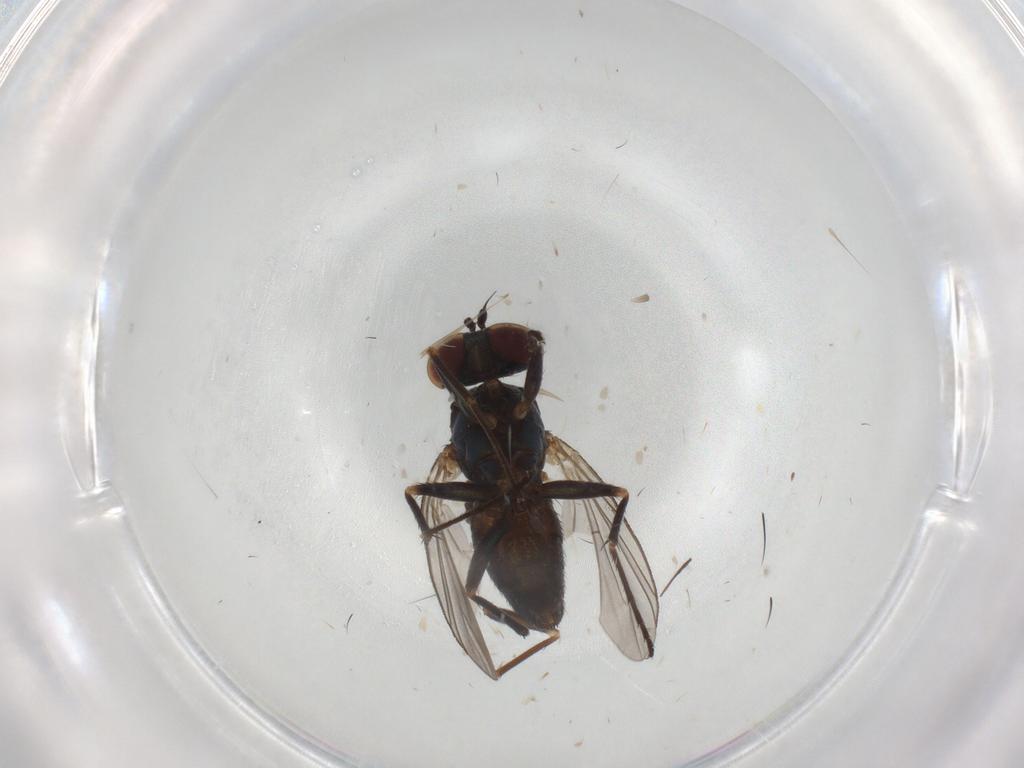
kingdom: Animalia
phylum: Arthropoda
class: Insecta
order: Diptera
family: Dolichopodidae
